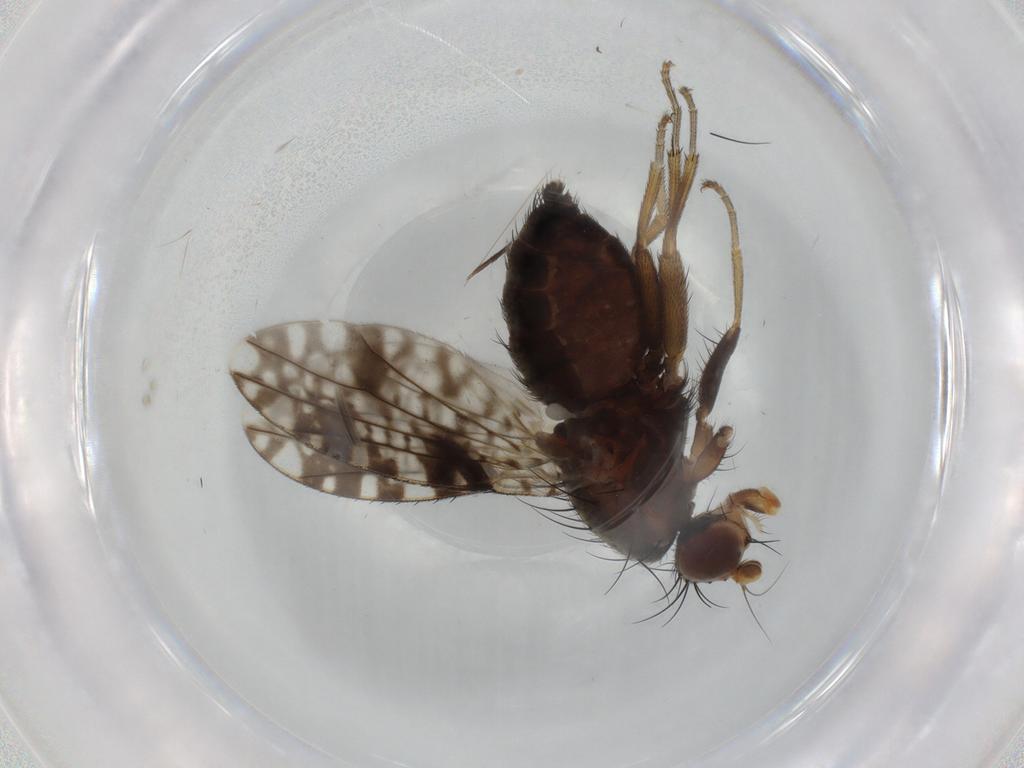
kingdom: Animalia
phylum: Arthropoda
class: Insecta
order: Diptera
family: Tephritidae
